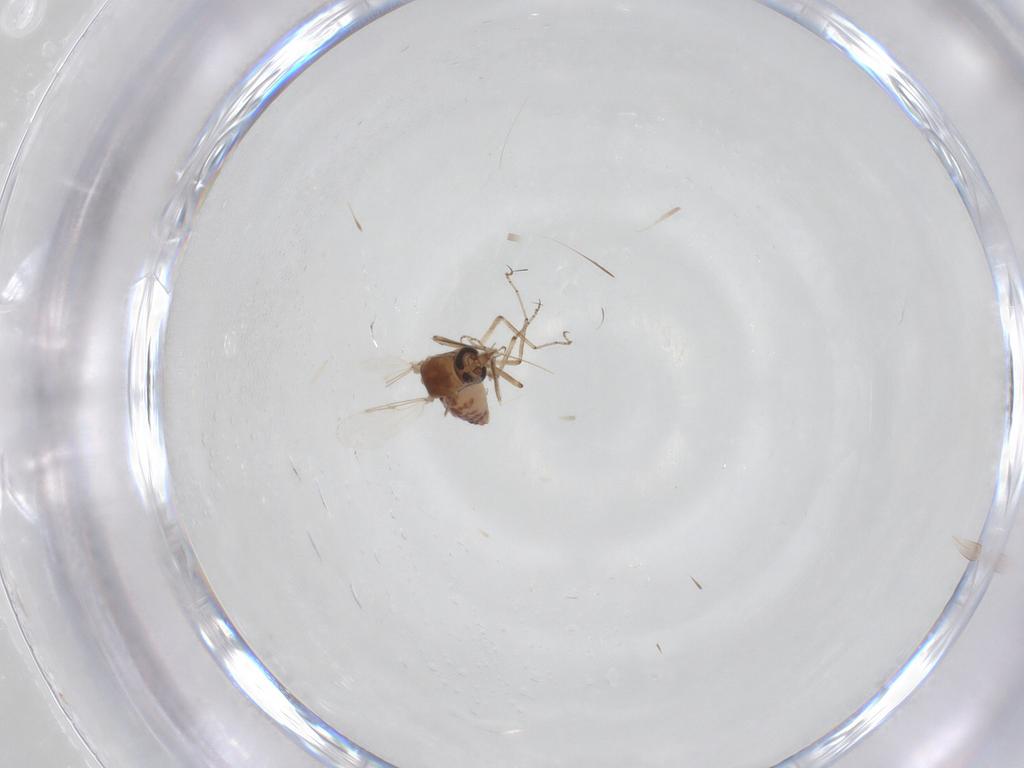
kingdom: Animalia
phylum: Arthropoda
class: Insecta
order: Diptera
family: Ceratopogonidae
